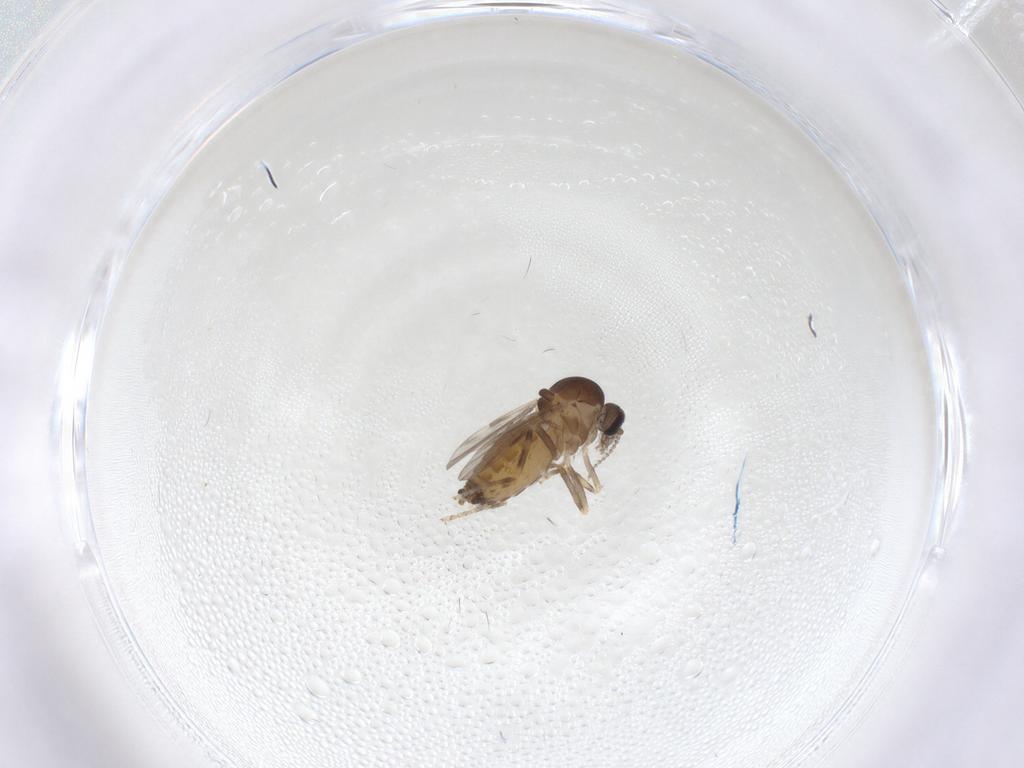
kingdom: Animalia
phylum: Arthropoda
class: Insecta
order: Diptera
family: Ceratopogonidae
